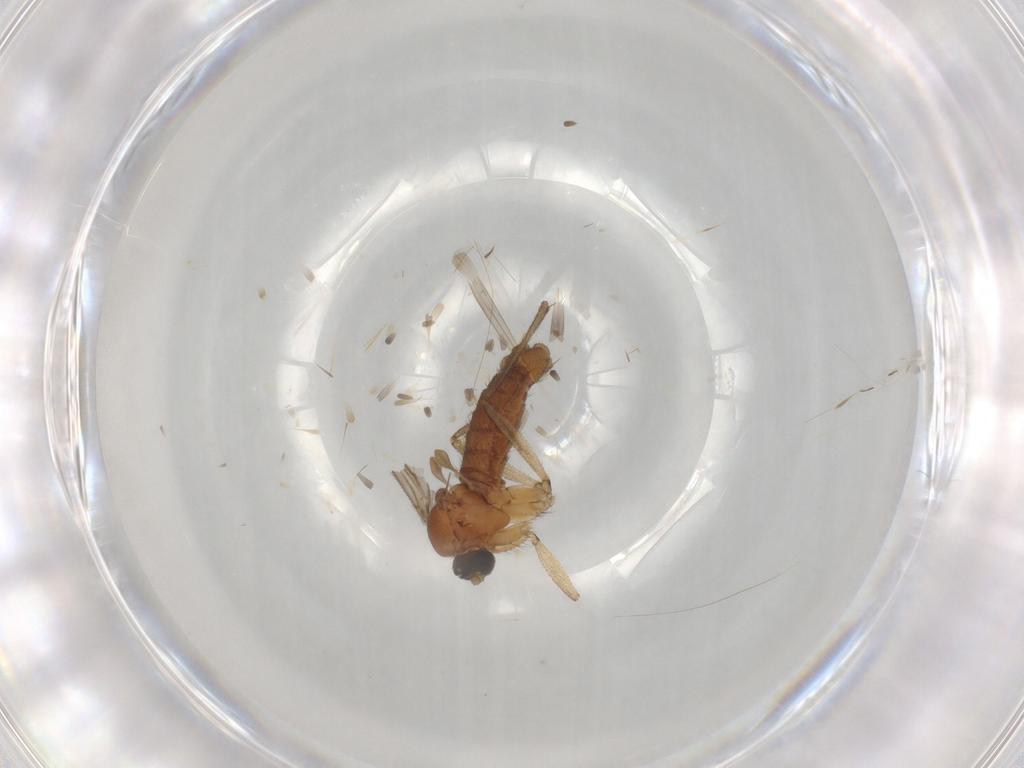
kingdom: Animalia
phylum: Arthropoda
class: Insecta
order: Diptera
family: Sciaridae
